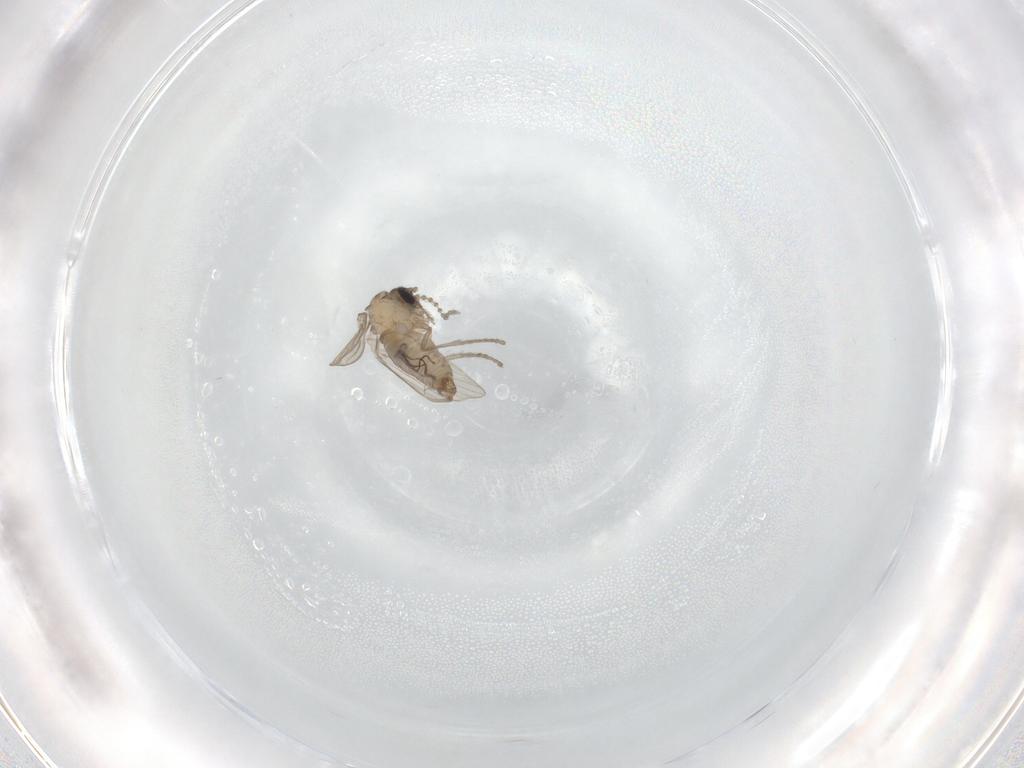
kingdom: Animalia
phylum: Arthropoda
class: Insecta
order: Diptera
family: Psychodidae
